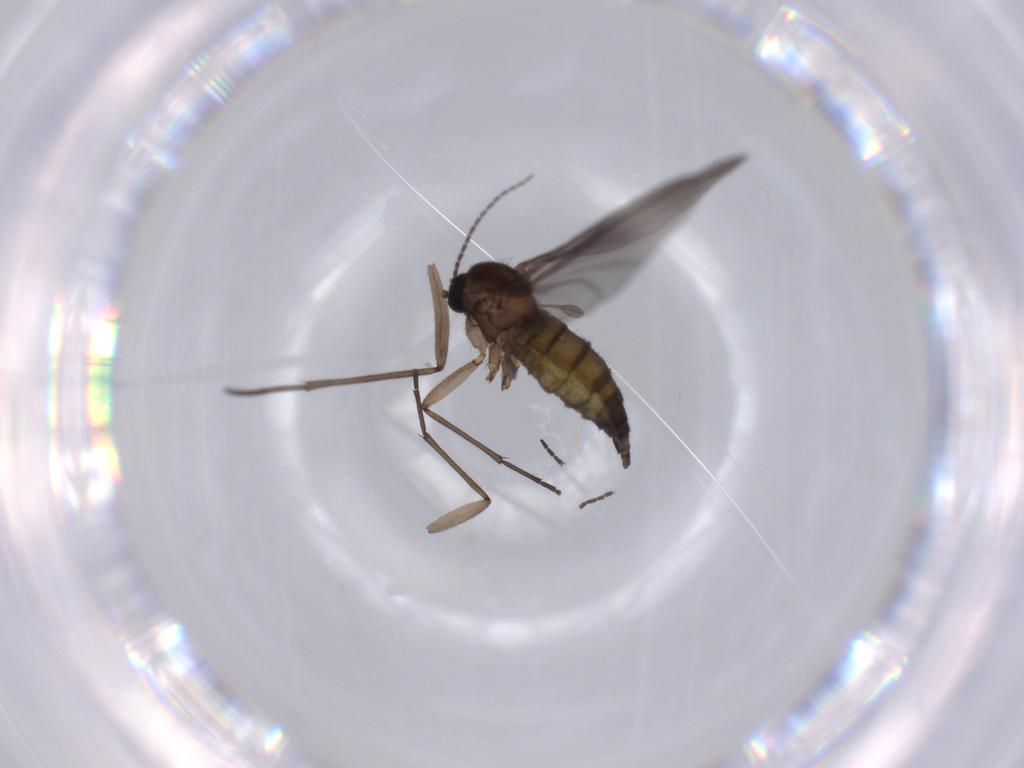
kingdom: Animalia
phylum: Arthropoda
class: Insecta
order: Diptera
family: Sciaridae
